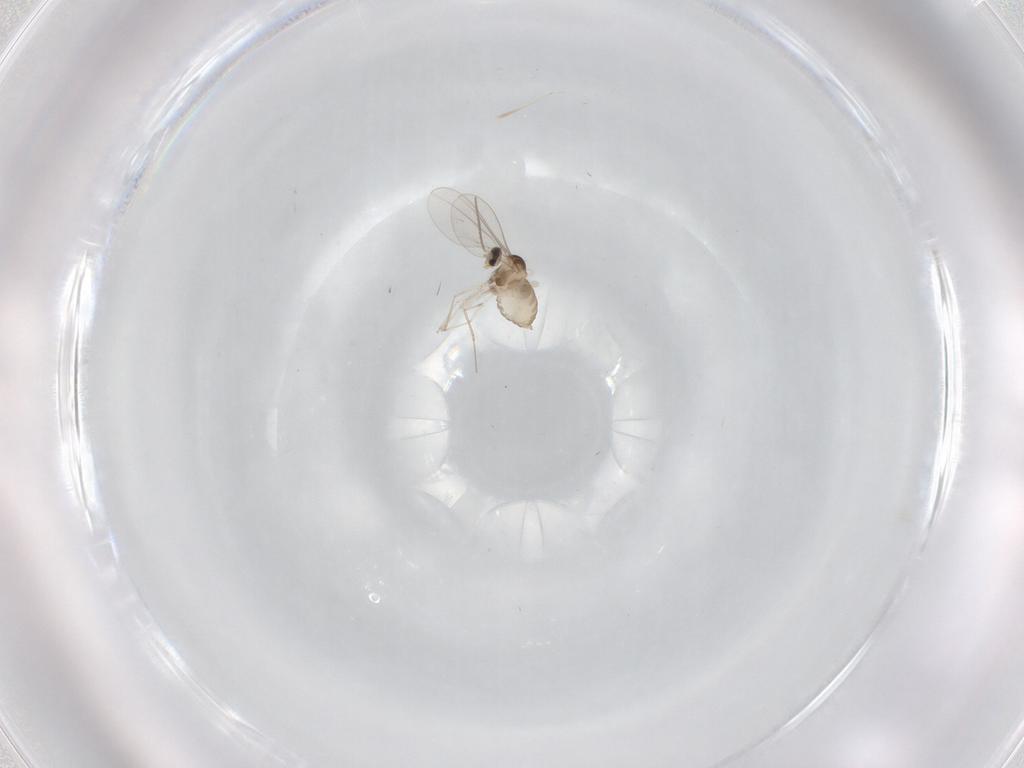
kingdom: Animalia
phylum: Arthropoda
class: Insecta
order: Diptera
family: Cecidomyiidae
